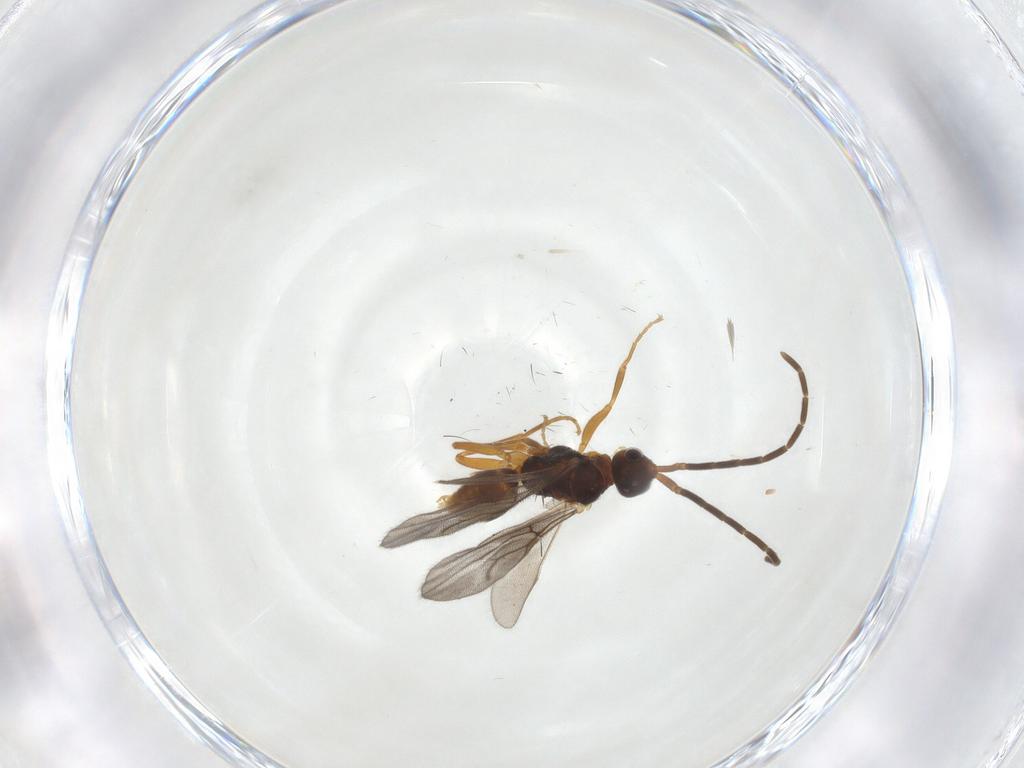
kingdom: Animalia
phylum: Arthropoda
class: Insecta
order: Hymenoptera
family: Embolemidae
